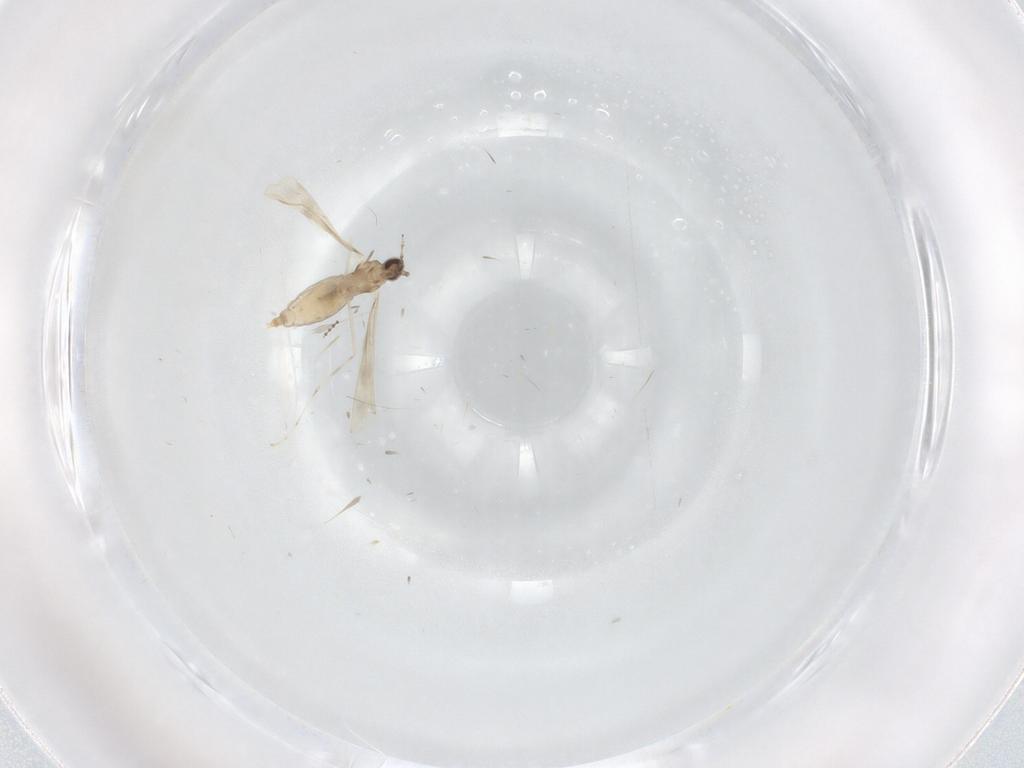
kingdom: Animalia
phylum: Arthropoda
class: Insecta
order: Diptera
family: Cecidomyiidae
